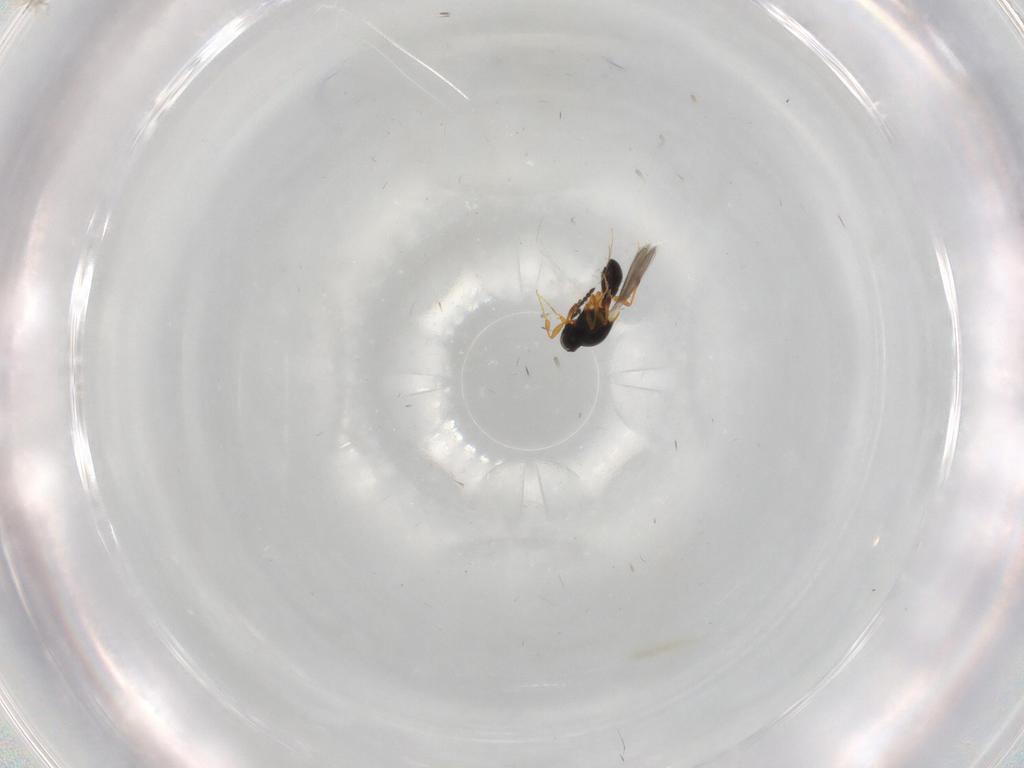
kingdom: Animalia
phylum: Arthropoda
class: Insecta
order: Hymenoptera
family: Platygastridae
